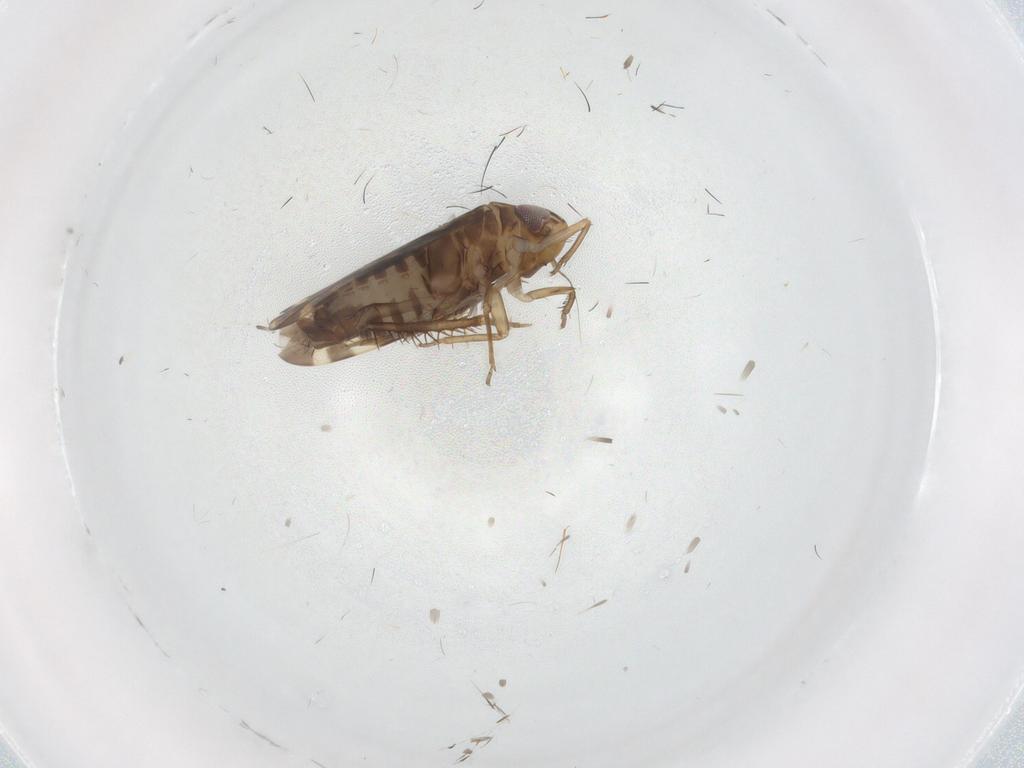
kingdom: Animalia
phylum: Arthropoda
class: Insecta
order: Hemiptera
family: Cicadellidae
